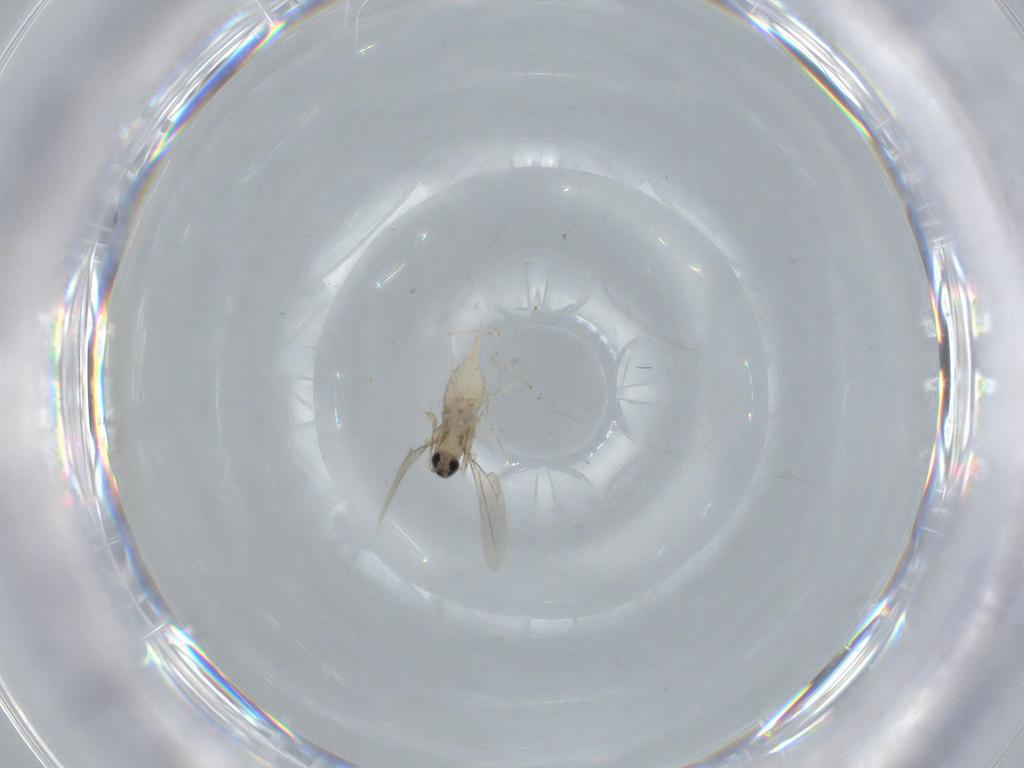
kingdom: Animalia
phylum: Arthropoda
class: Insecta
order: Diptera
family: Cecidomyiidae
